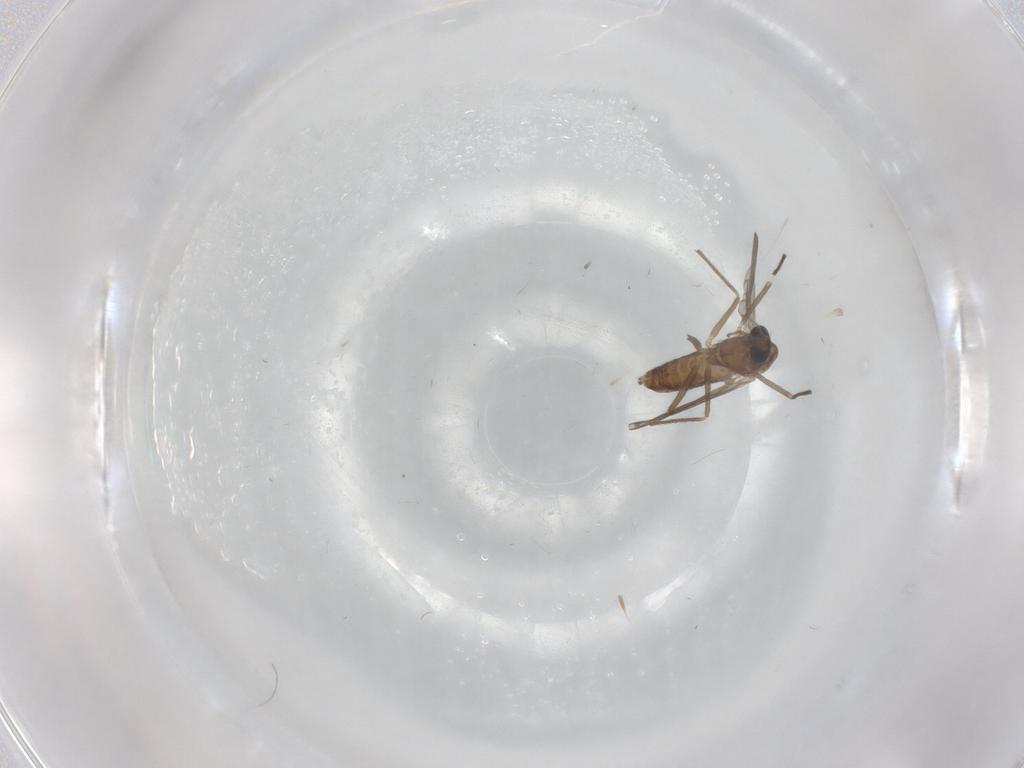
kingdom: Animalia
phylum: Arthropoda
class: Insecta
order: Diptera
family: Chironomidae
